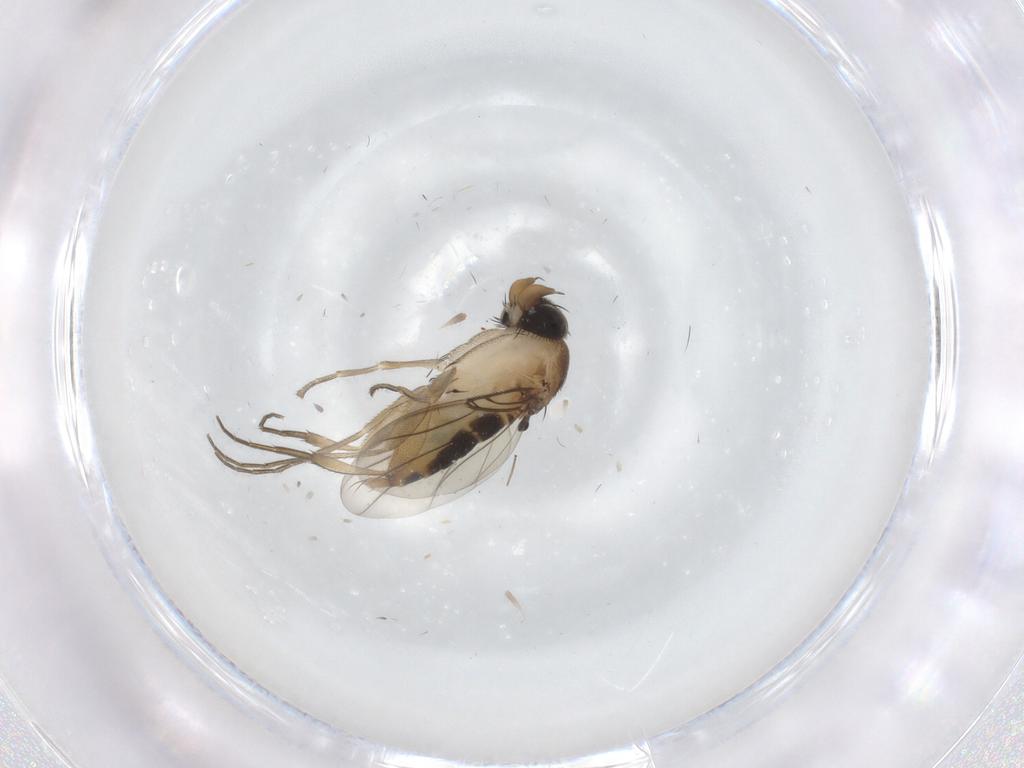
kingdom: Animalia
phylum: Arthropoda
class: Insecta
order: Diptera
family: Phoridae
